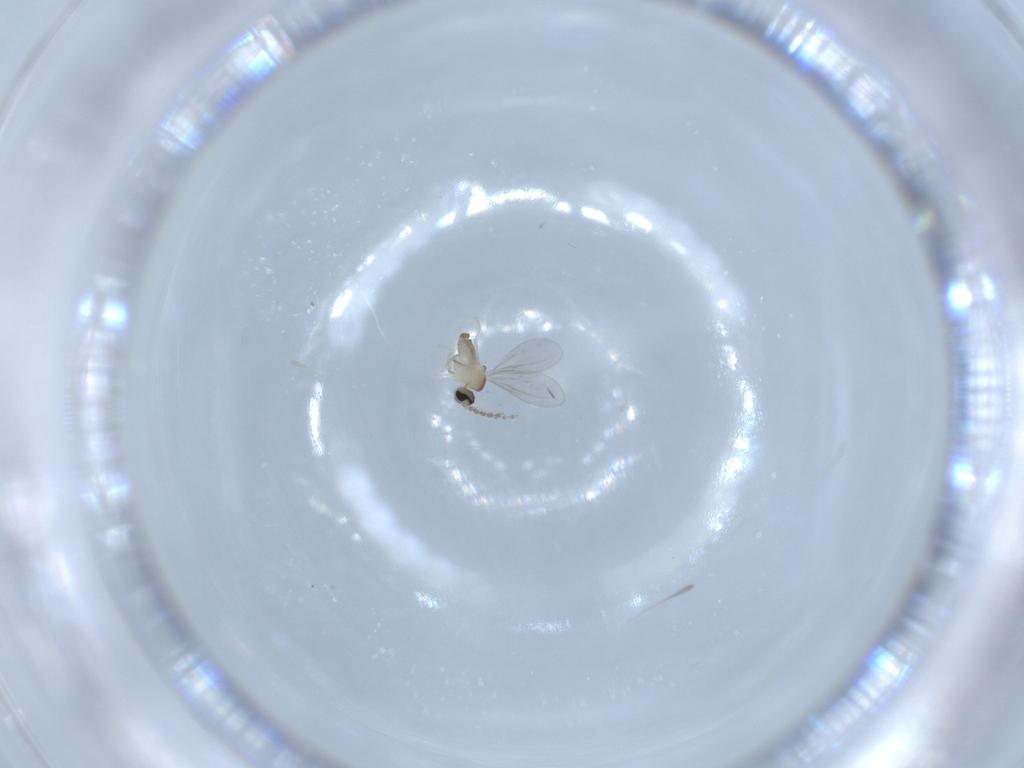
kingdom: Animalia
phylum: Arthropoda
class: Insecta
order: Diptera
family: Cecidomyiidae
